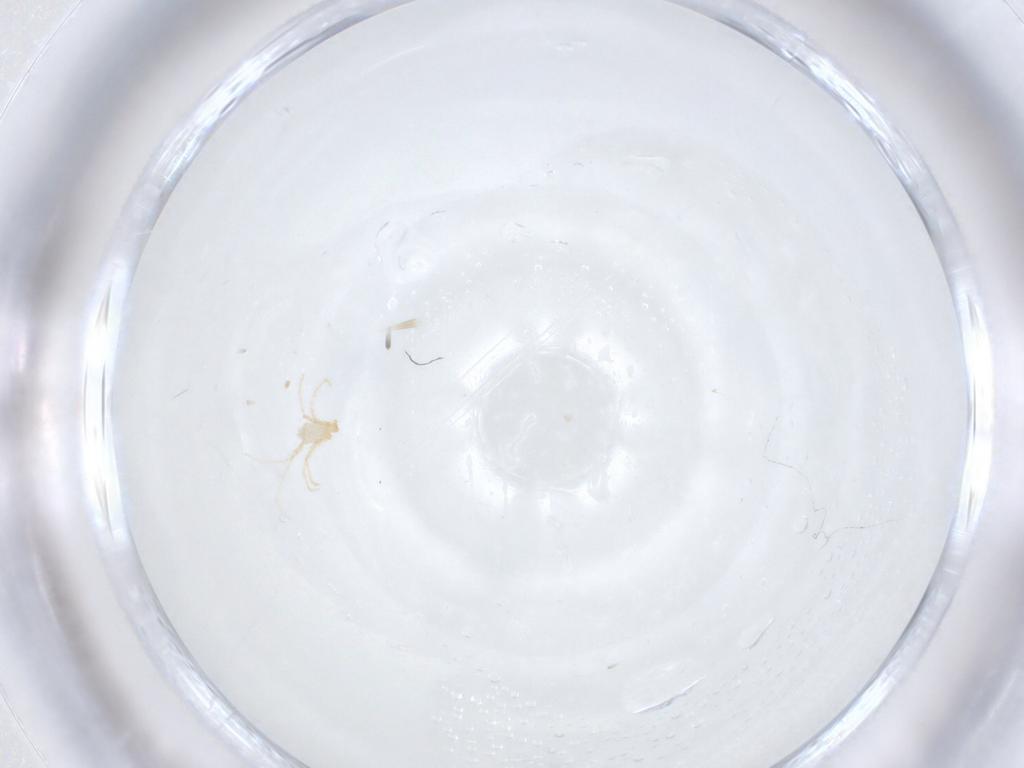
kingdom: Animalia
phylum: Arthropoda
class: Arachnida
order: Trombidiformes
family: Erythraeidae
